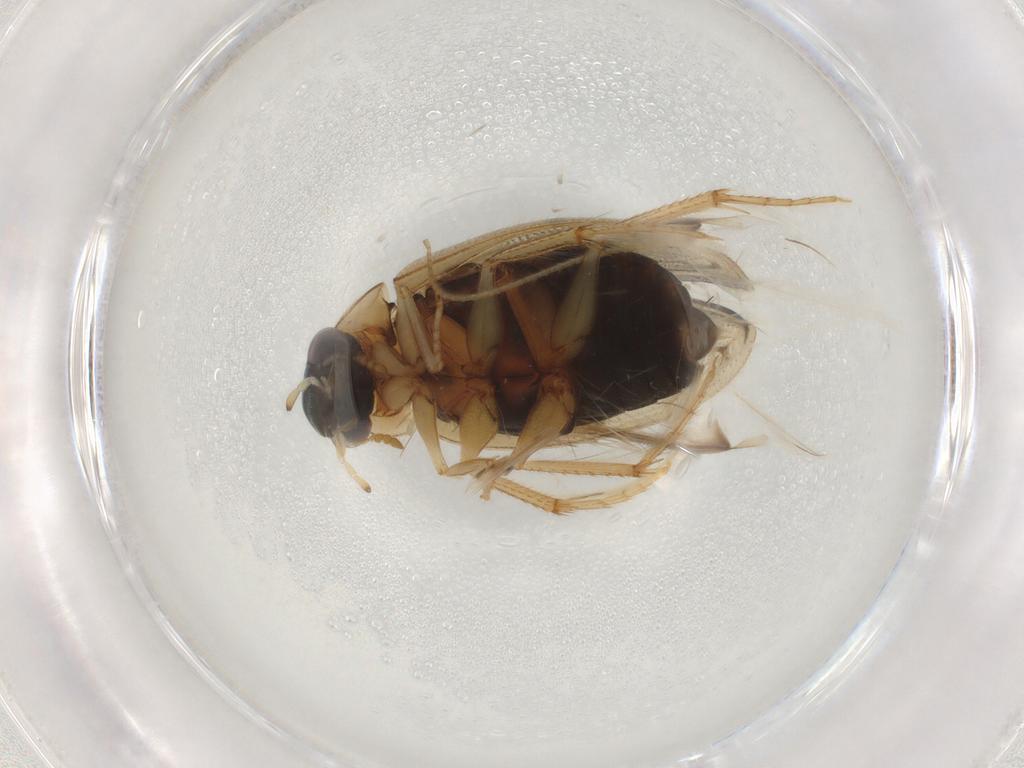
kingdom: Animalia
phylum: Arthropoda
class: Insecta
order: Coleoptera
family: Hydrophilidae
